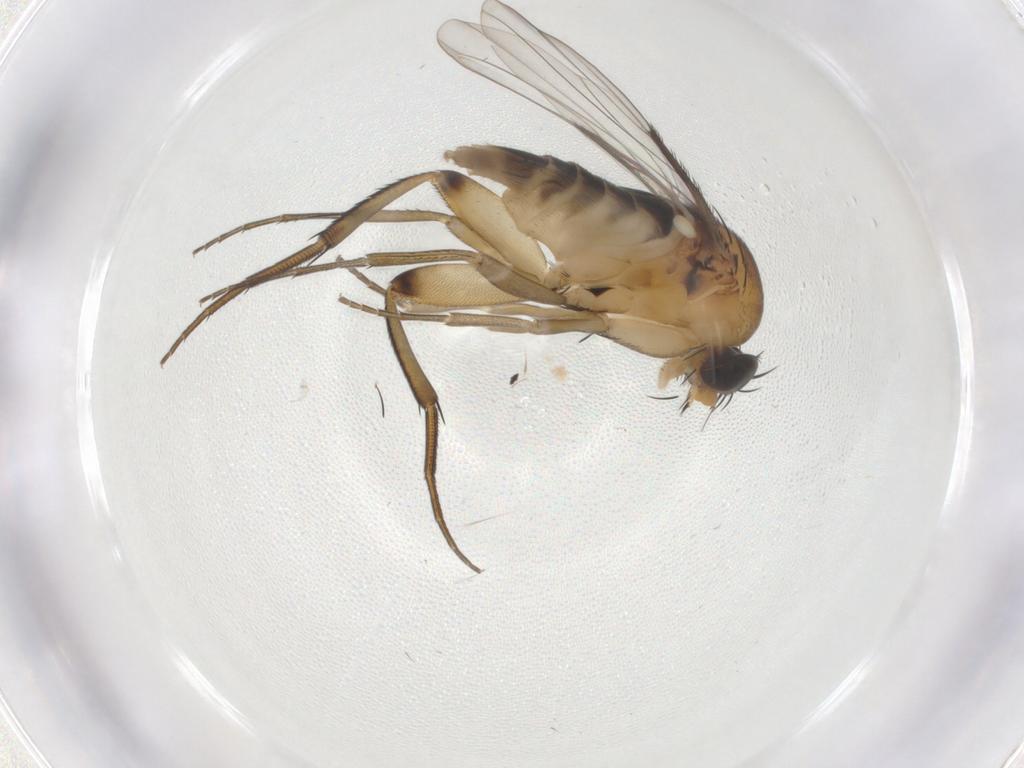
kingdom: Animalia
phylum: Arthropoda
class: Insecta
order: Diptera
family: Phoridae
